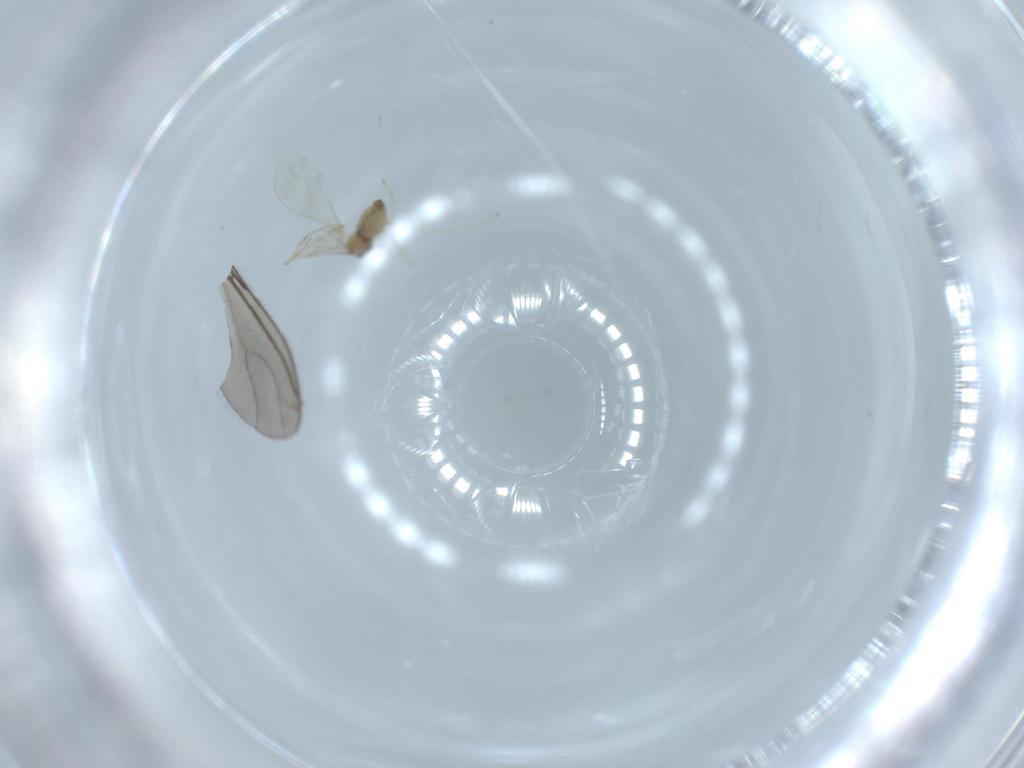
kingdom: Animalia
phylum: Arthropoda
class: Insecta
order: Diptera
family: Cecidomyiidae
